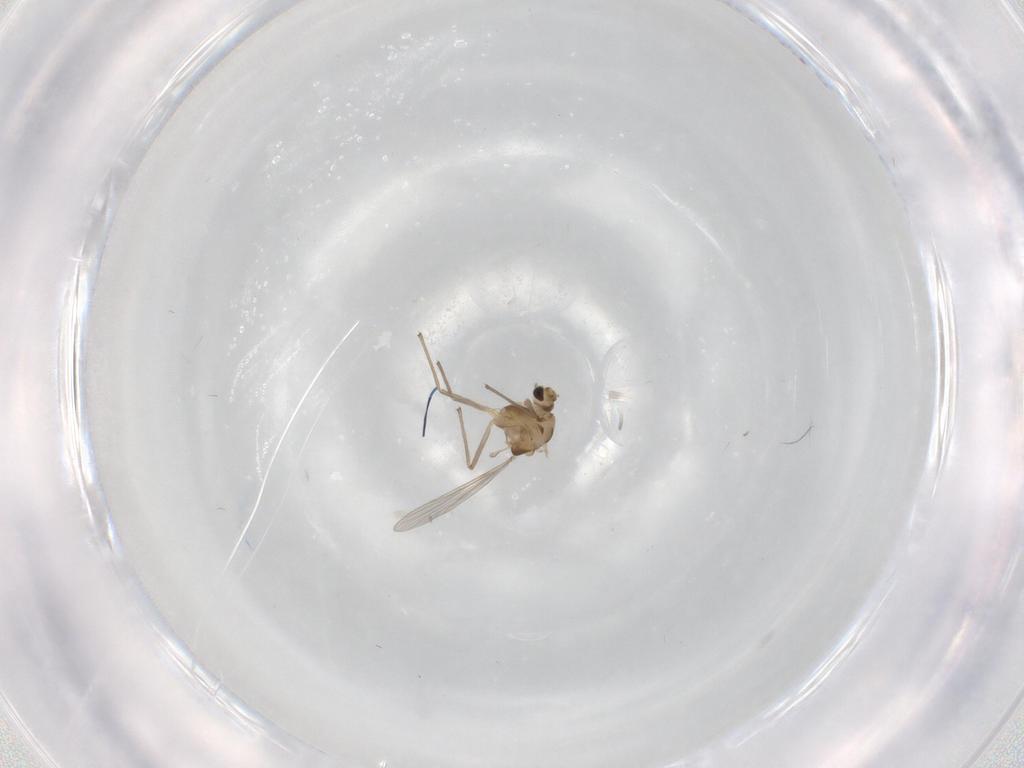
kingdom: Animalia
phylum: Arthropoda
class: Insecta
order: Diptera
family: Chironomidae
